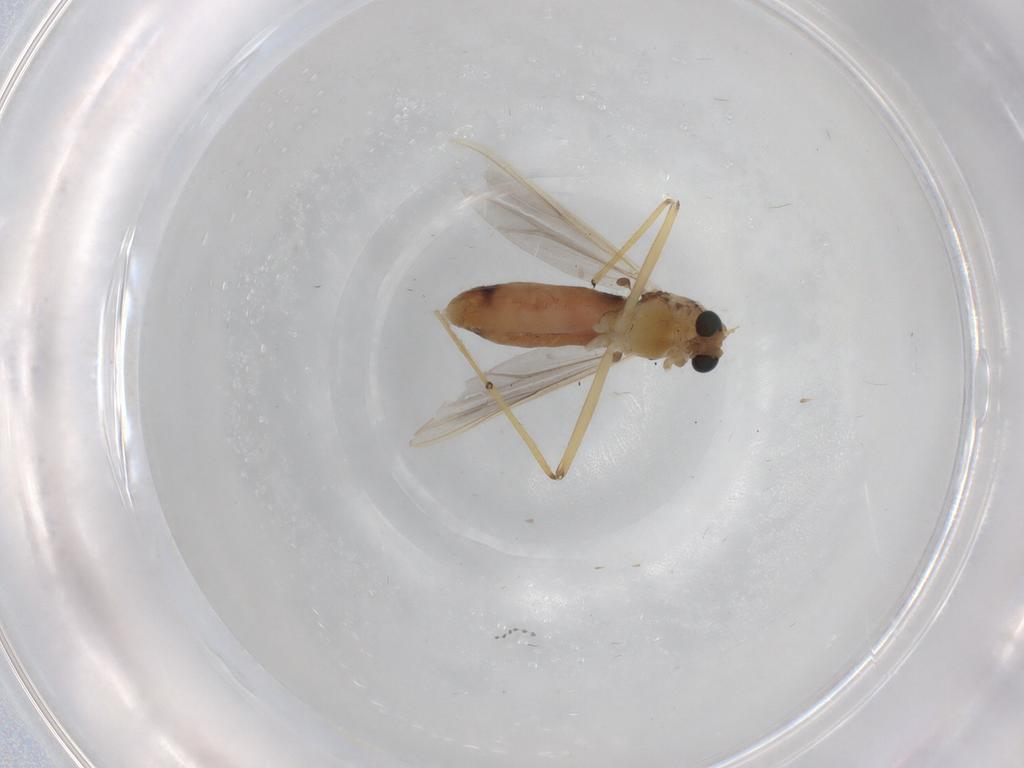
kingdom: Animalia
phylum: Arthropoda
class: Insecta
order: Diptera
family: Chironomidae
